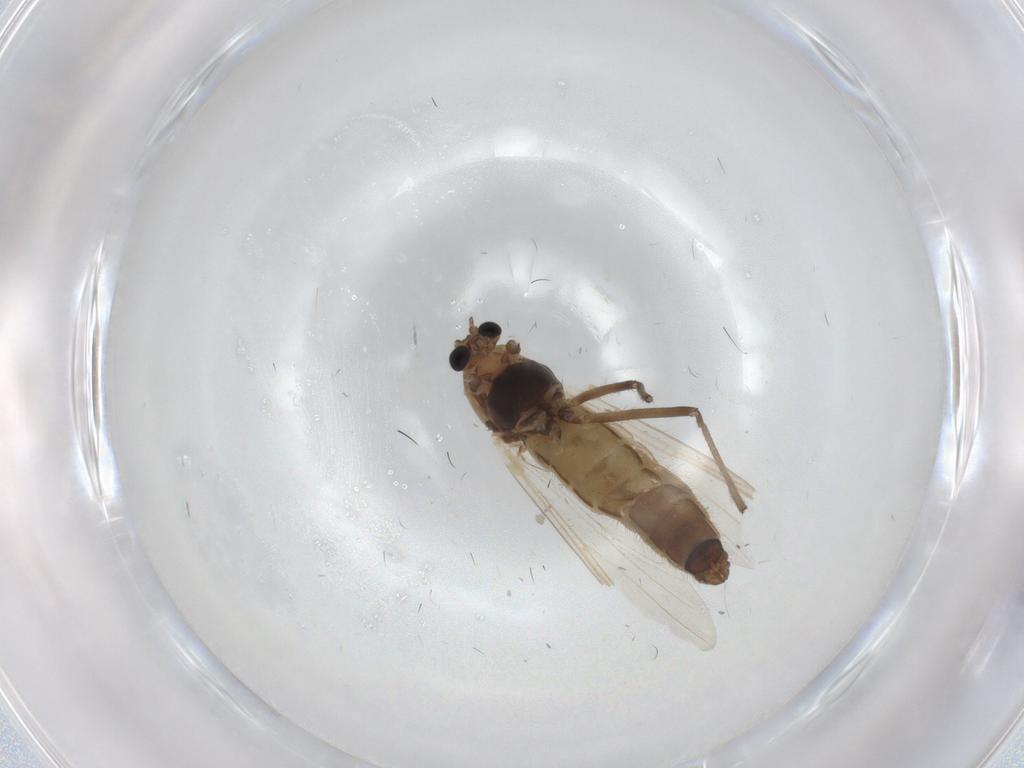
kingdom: Animalia
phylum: Arthropoda
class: Insecta
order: Diptera
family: Chironomidae
